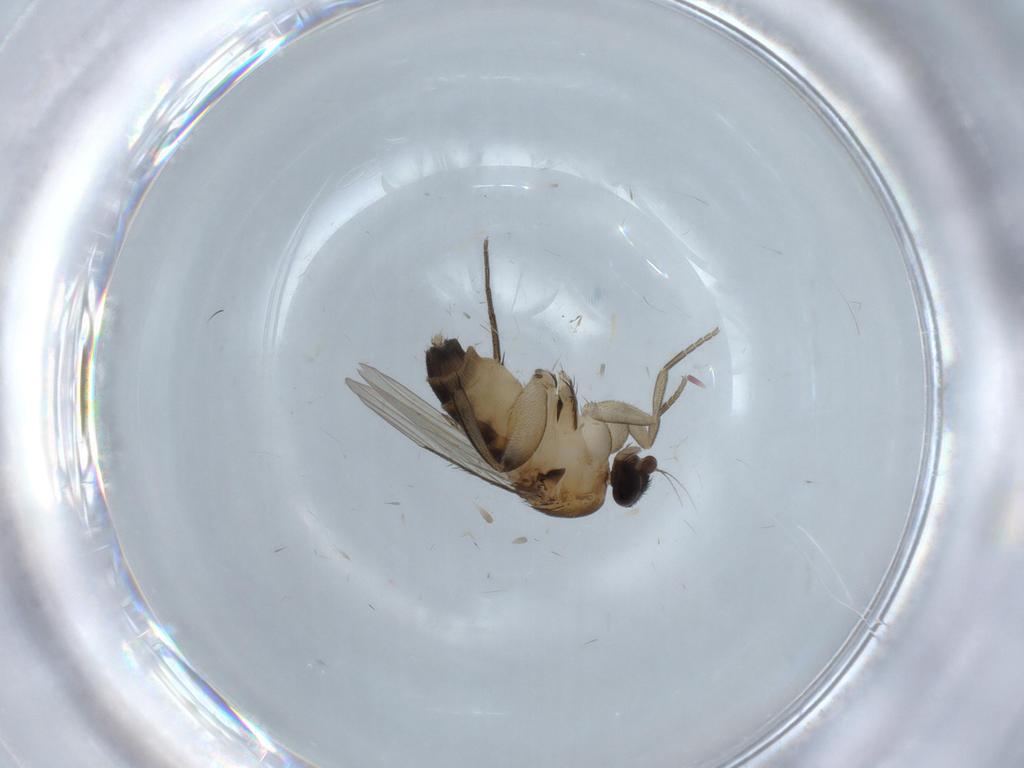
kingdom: Animalia
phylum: Arthropoda
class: Insecta
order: Diptera
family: Phoridae
